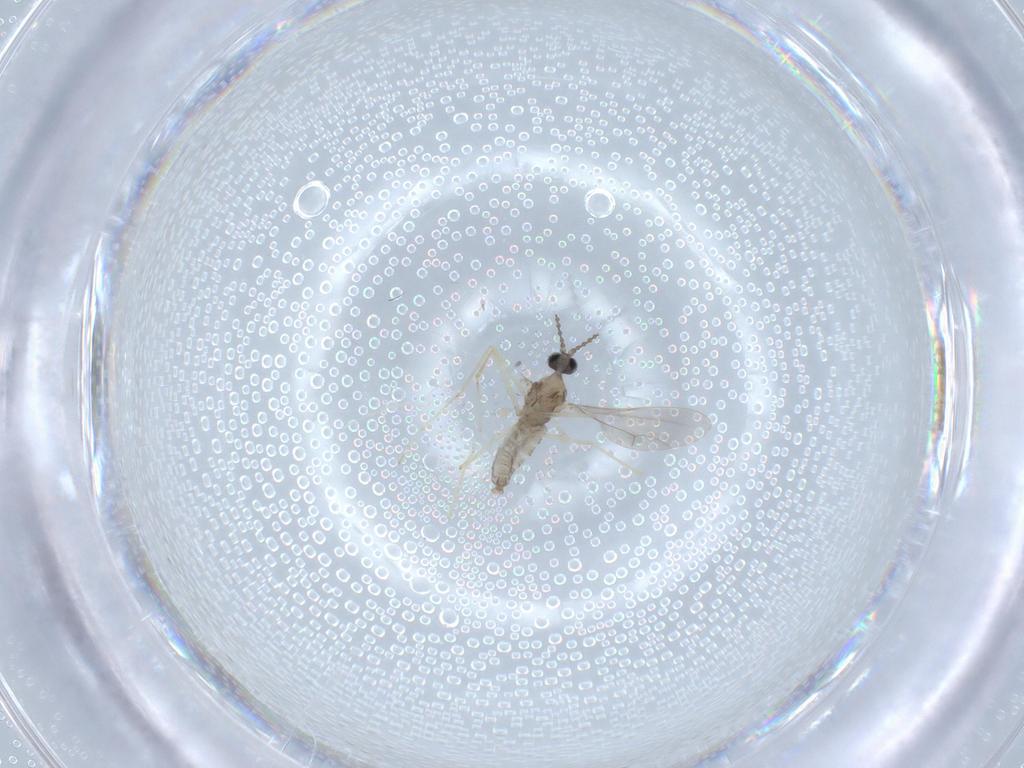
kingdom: Animalia
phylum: Arthropoda
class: Insecta
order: Diptera
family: Cecidomyiidae
